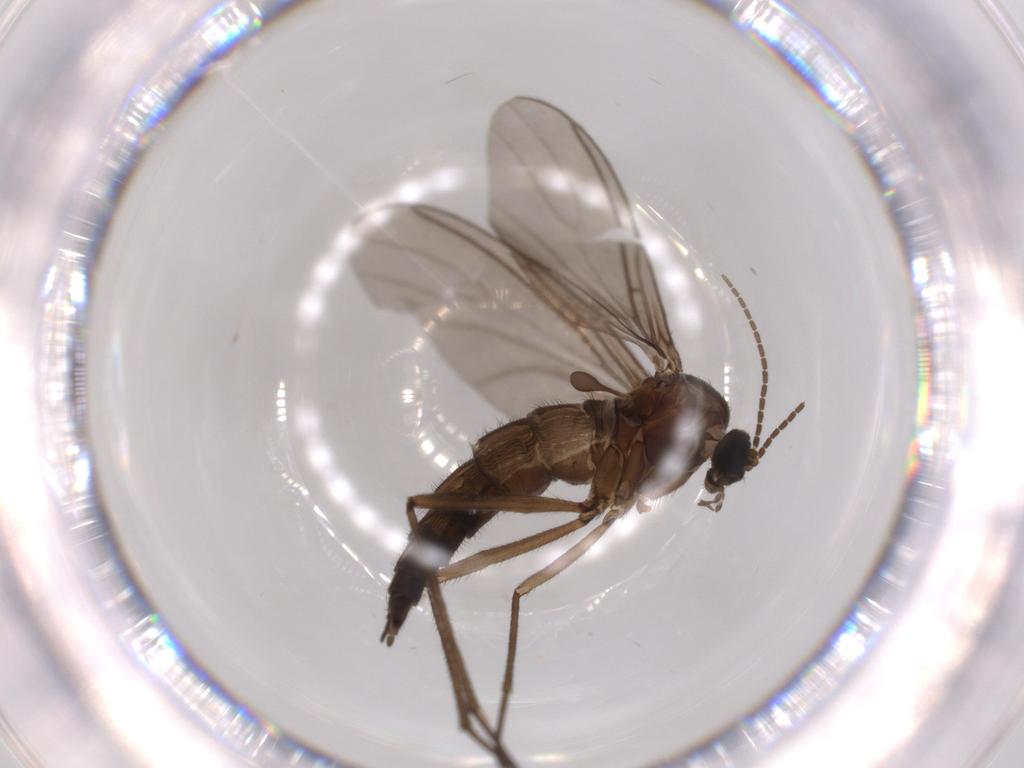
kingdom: Animalia
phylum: Arthropoda
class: Insecta
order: Diptera
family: Sciaridae
